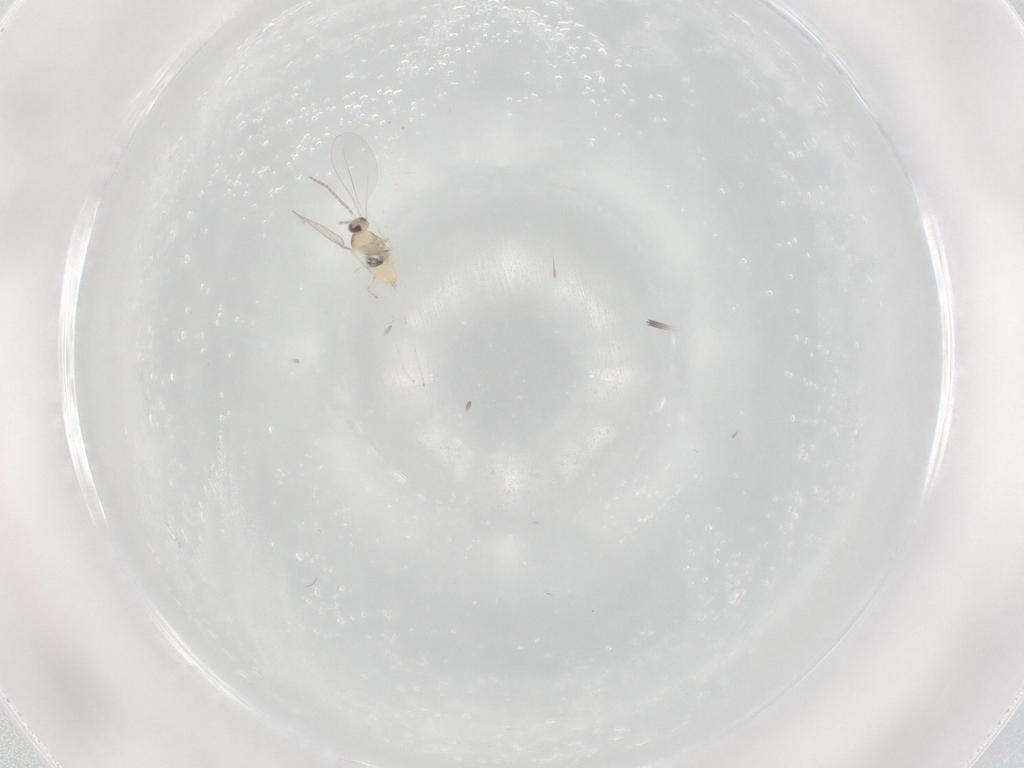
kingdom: Animalia
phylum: Arthropoda
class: Insecta
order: Diptera
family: Cecidomyiidae
